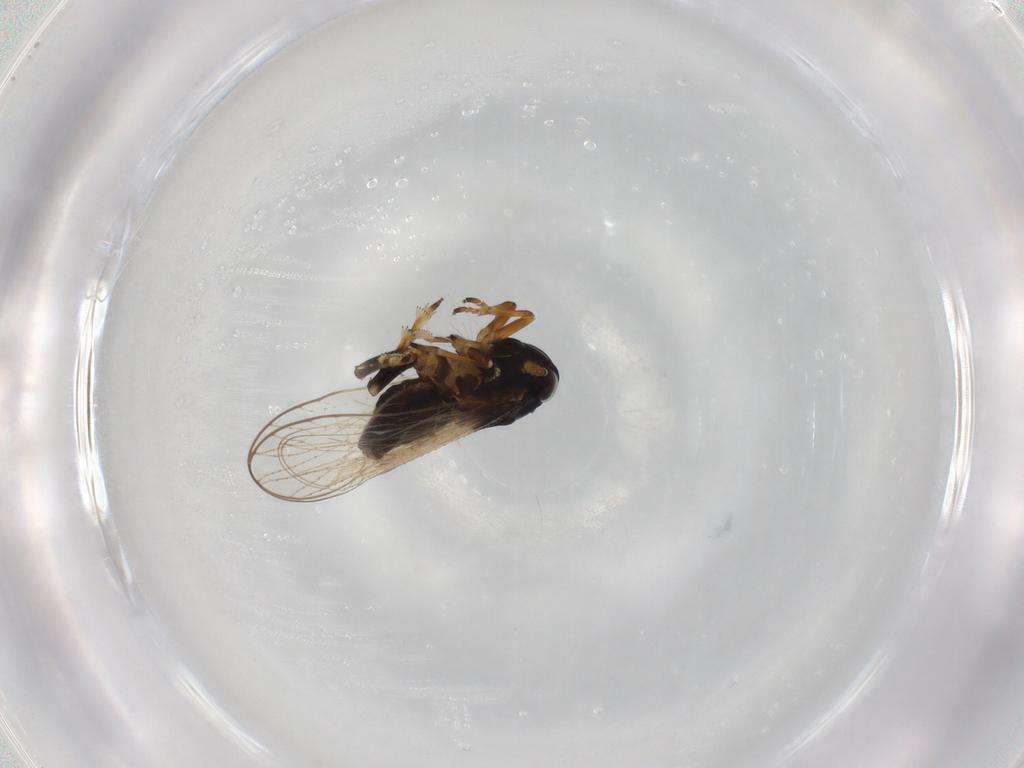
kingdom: Animalia
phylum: Arthropoda
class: Insecta
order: Hemiptera
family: Delphacidae
